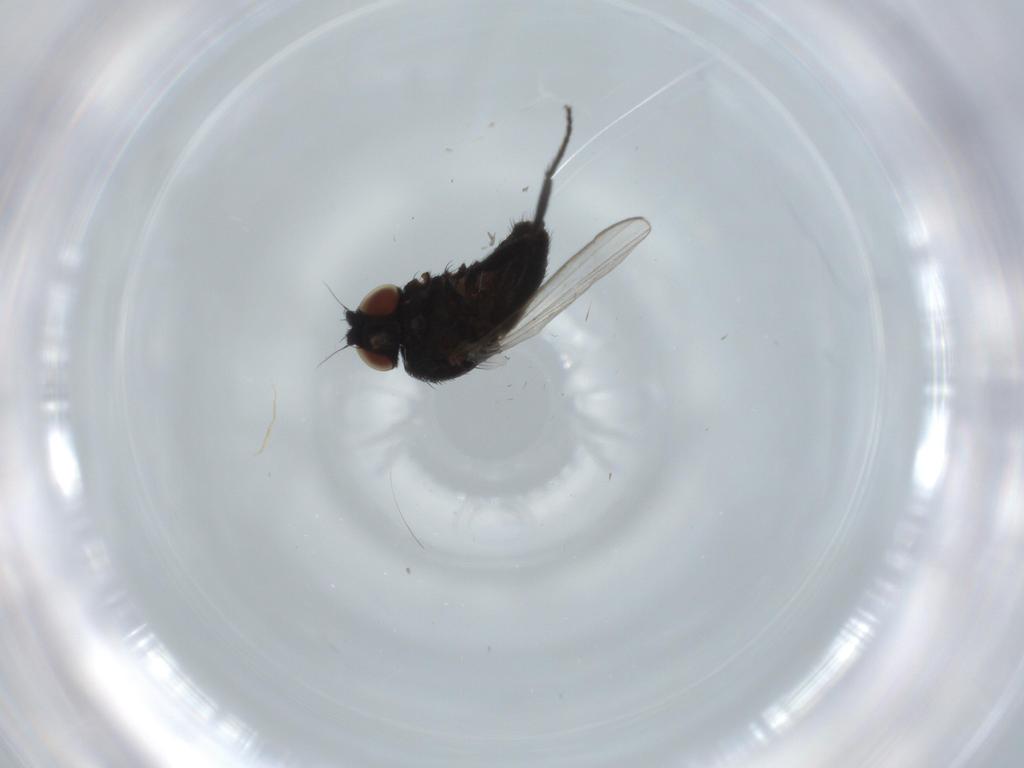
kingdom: Animalia
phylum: Arthropoda
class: Insecta
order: Diptera
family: Cecidomyiidae
